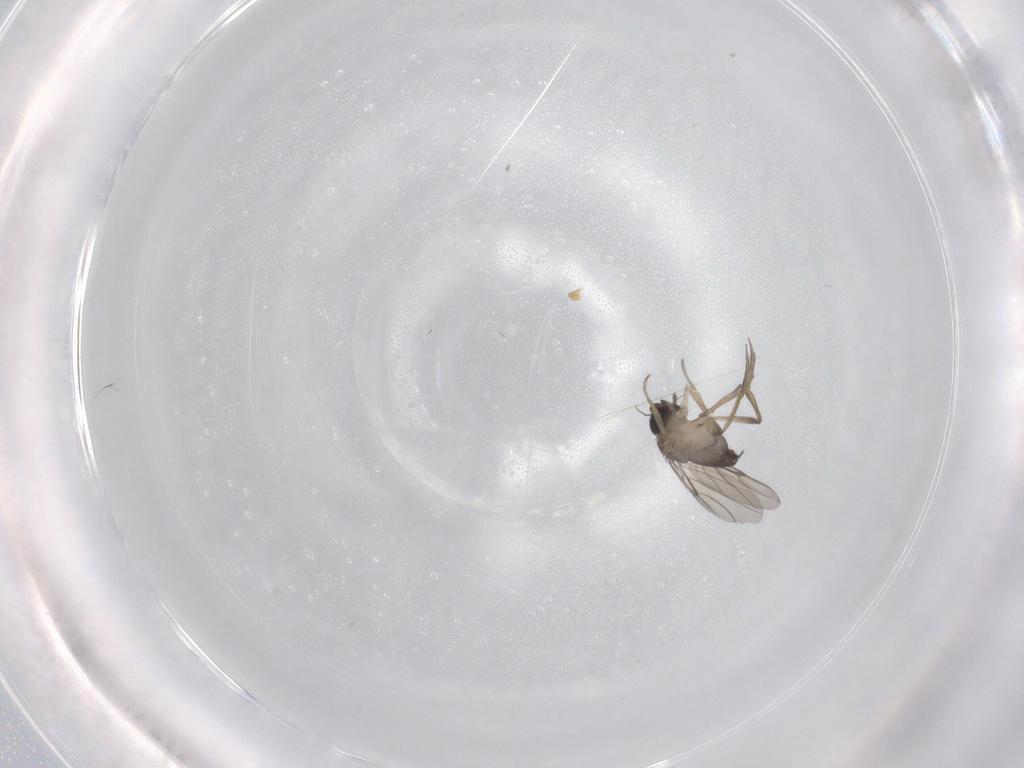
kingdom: Animalia
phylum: Arthropoda
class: Insecta
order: Diptera
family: Phoridae
